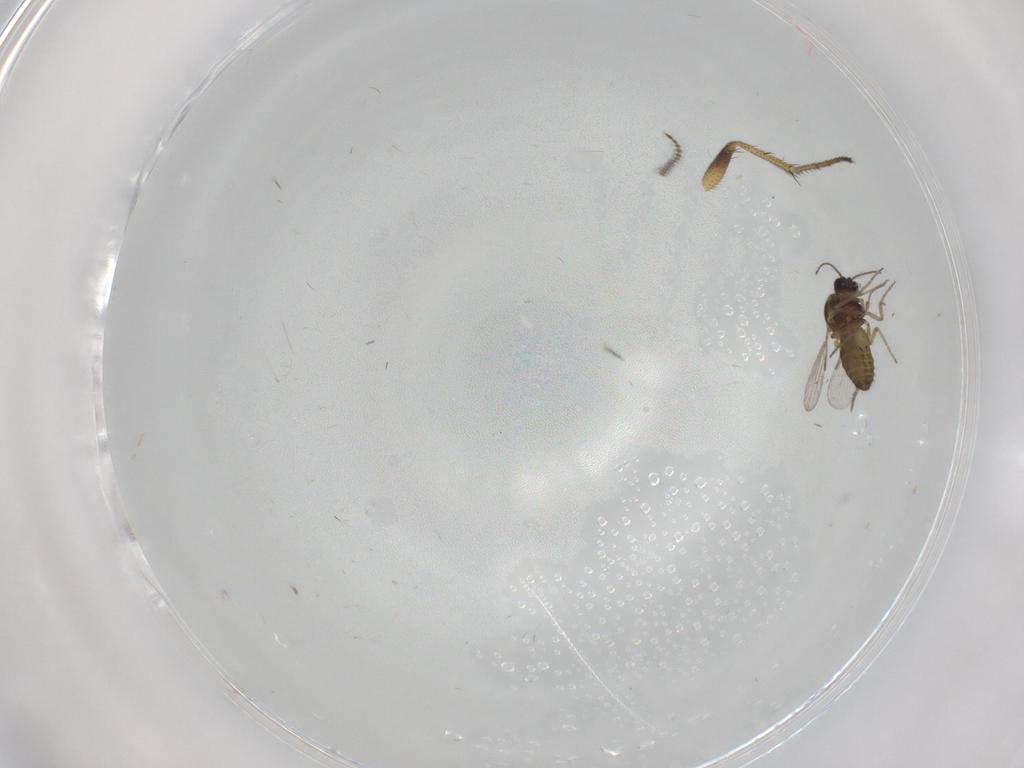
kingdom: Animalia
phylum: Arthropoda
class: Insecta
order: Diptera
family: Ceratopogonidae
